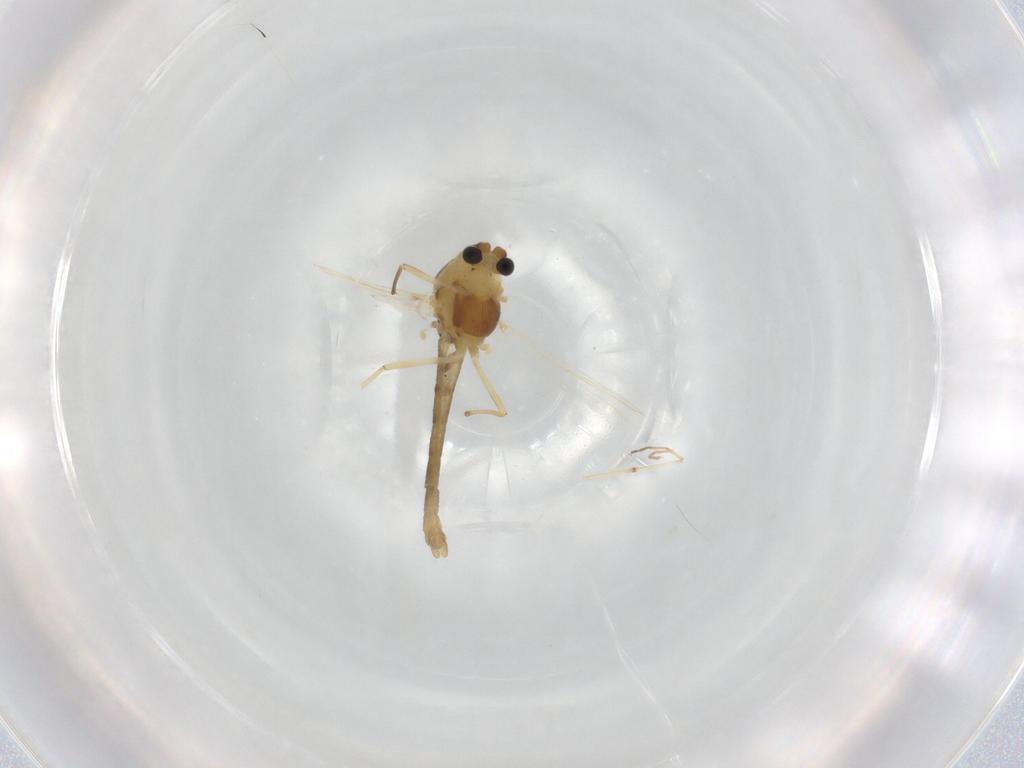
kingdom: Animalia
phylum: Arthropoda
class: Insecta
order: Diptera
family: Chironomidae
